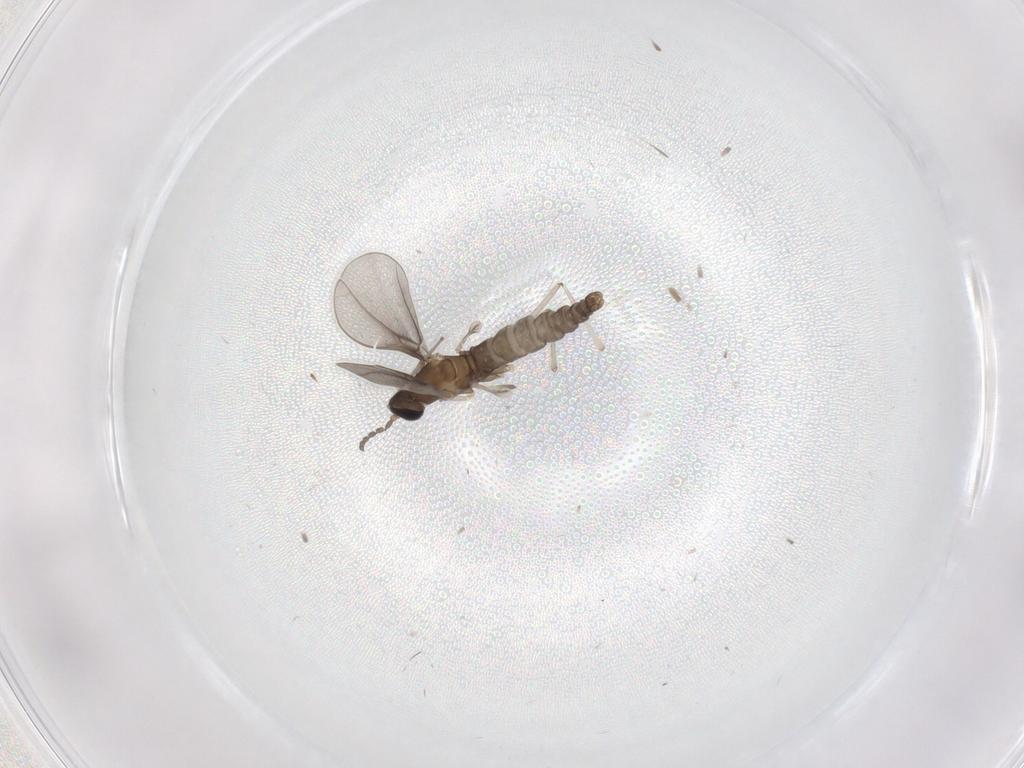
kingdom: Animalia
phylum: Arthropoda
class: Insecta
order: Diptera
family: Cecidomyiidae
